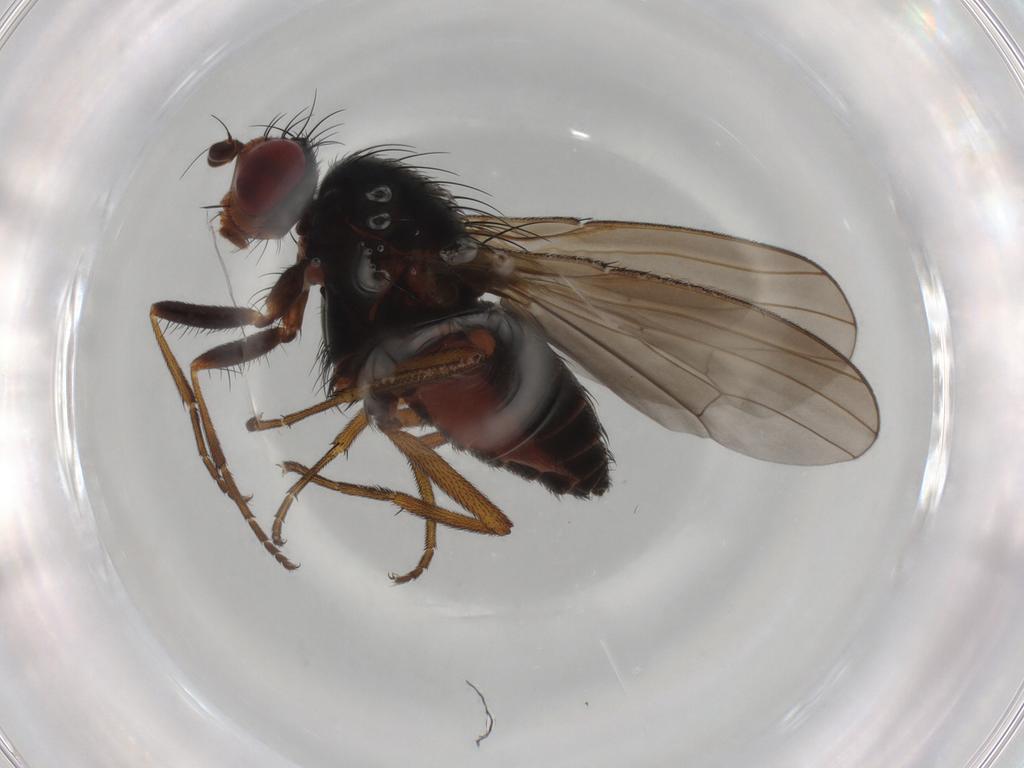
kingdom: Animalia
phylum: Arthropoda
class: Insecta
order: Diptera
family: Heleomyzidae
